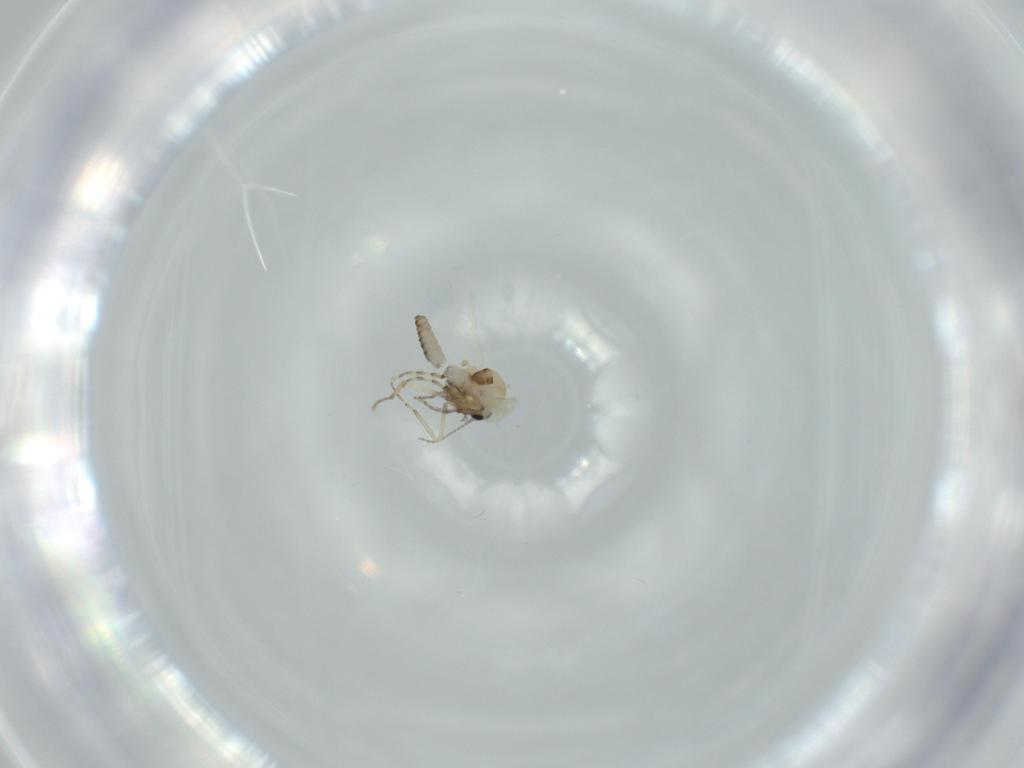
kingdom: Animalia
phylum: Arthropoda
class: Insecta
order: Diptera
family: Ceratopogonidae
